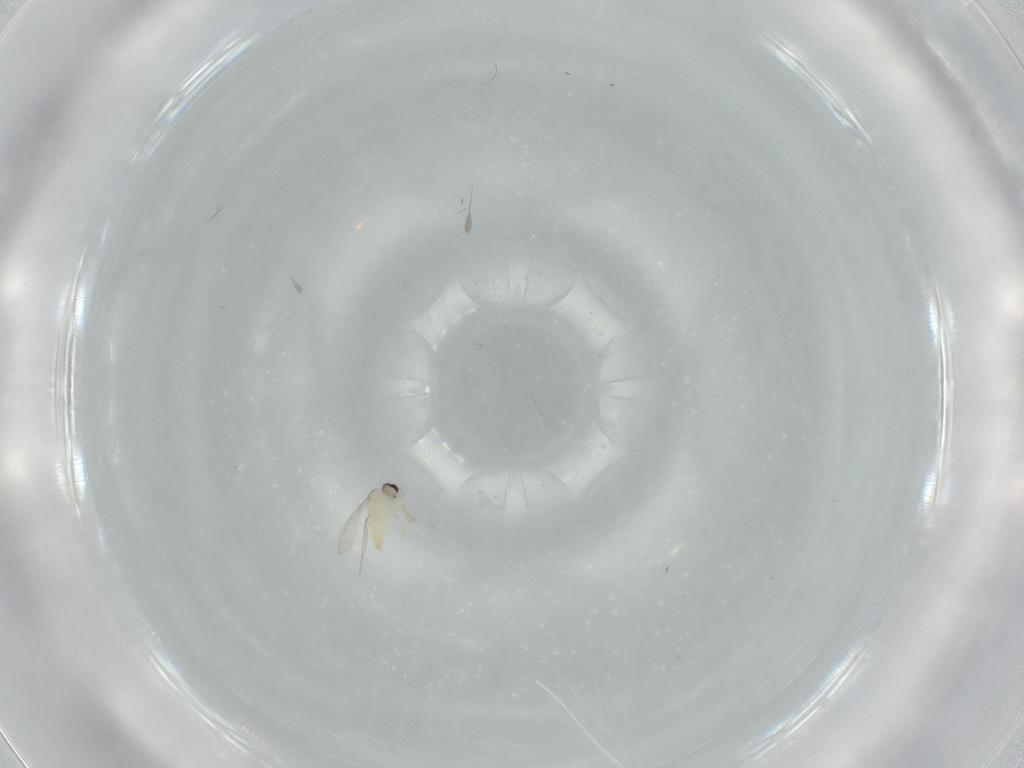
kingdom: Animalia
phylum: Arthropoda
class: Insecta
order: Diptera
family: Cecidomyiidae
